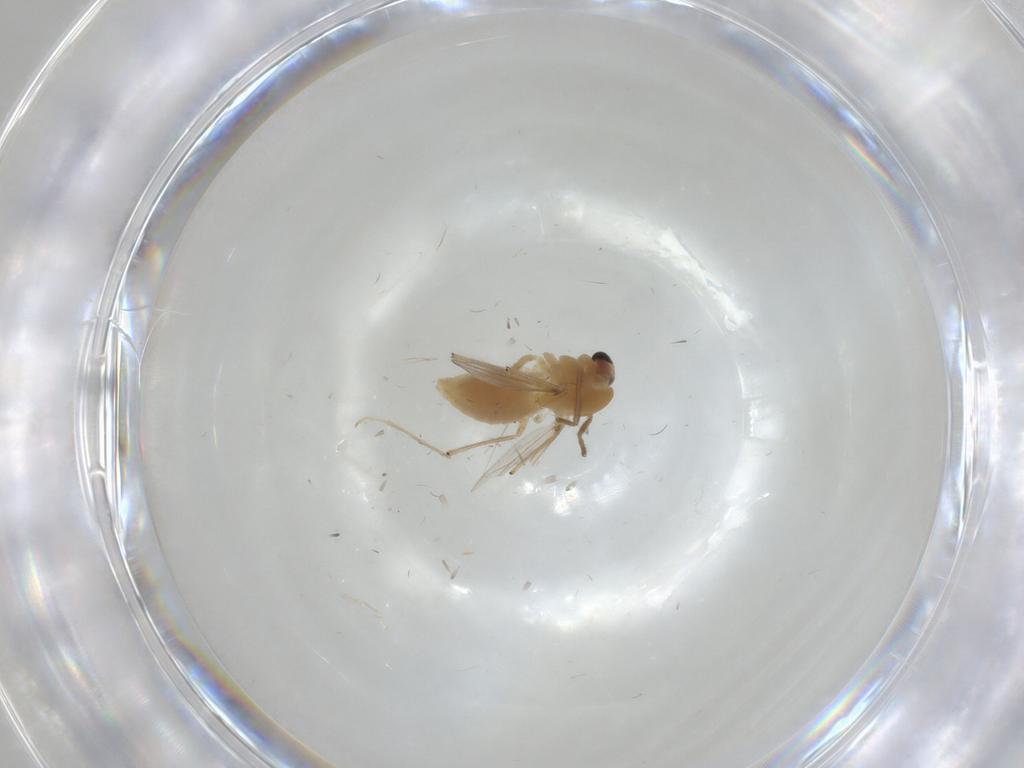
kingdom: Animalia
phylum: Arthropoda
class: Insecta
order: Diptera
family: Chironomidae
